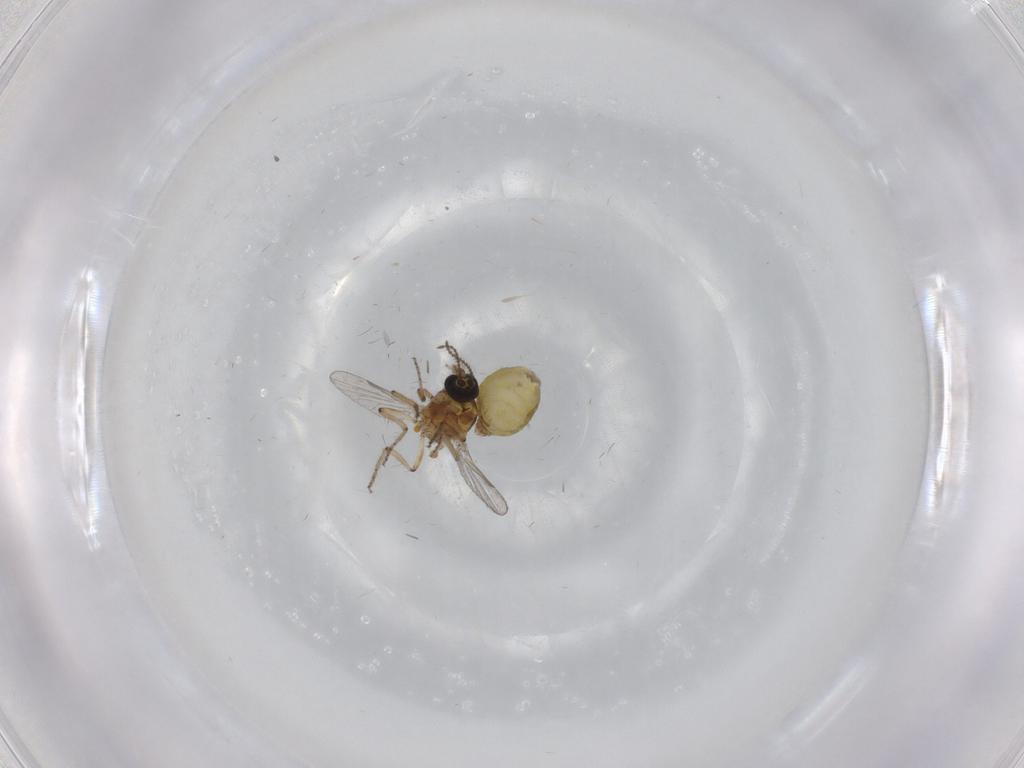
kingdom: Animalia
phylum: Arthropoda
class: Insecta
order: Diptera
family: Ceratopogonidae
